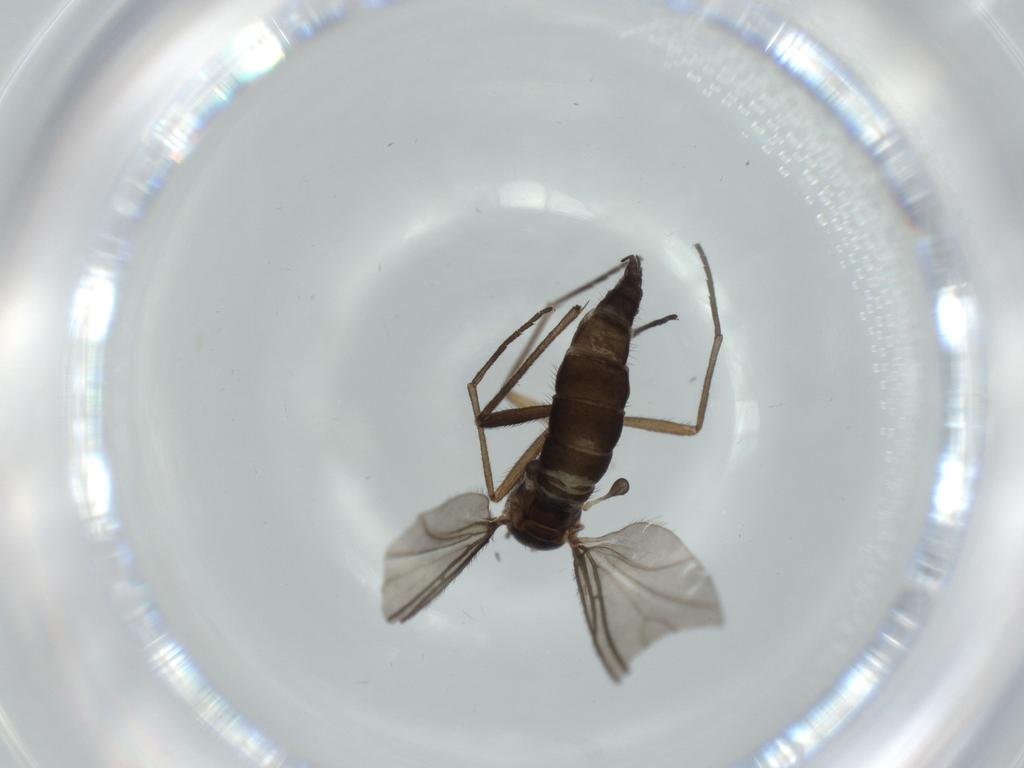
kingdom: Animalia
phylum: Arthropoda
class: Insecta
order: Diptera
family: Sciaridae
